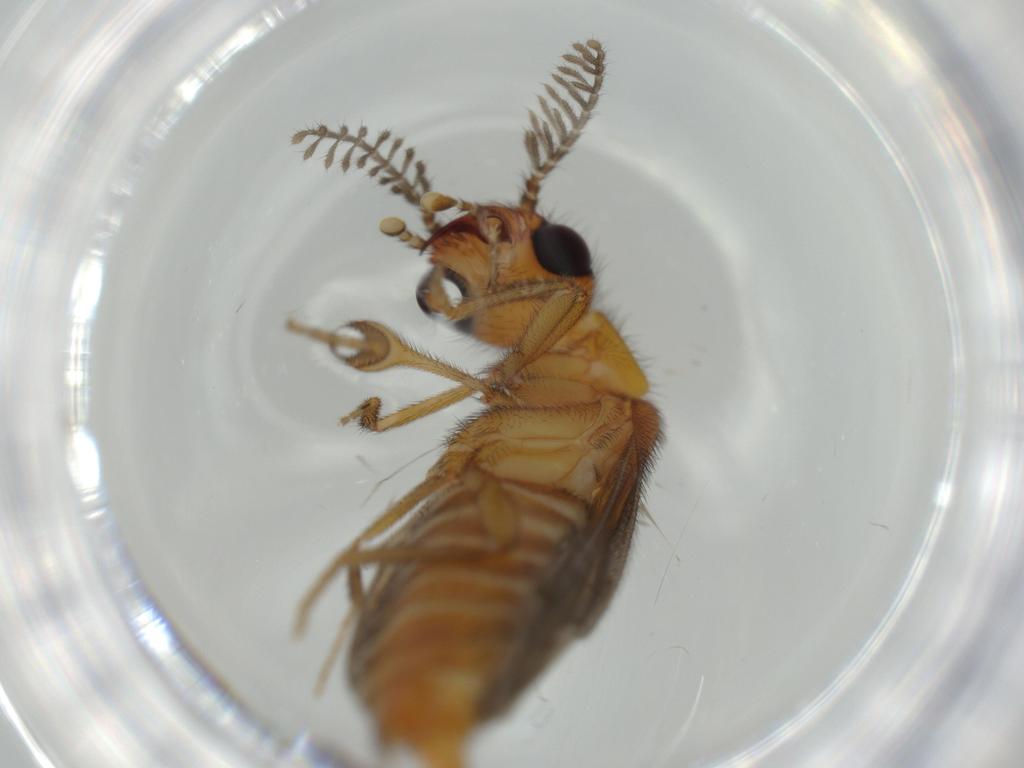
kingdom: Animalia
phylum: Arthropoda
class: Insecta
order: Coleoptera
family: Phengodidae
